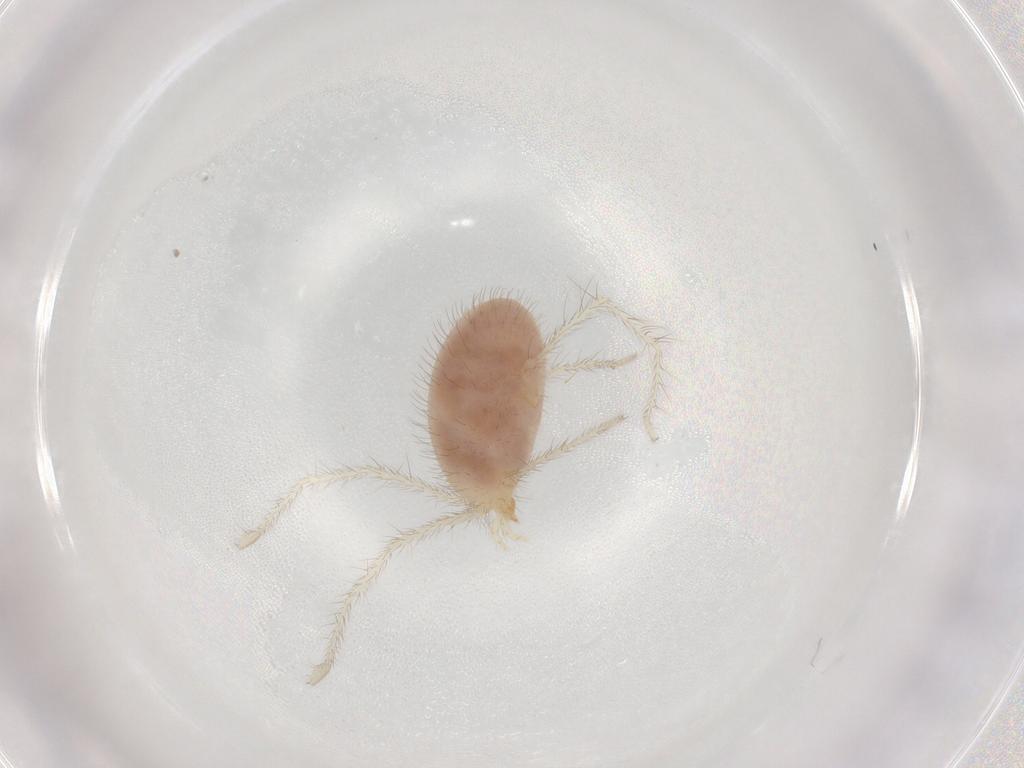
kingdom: Animalia
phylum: Arthropoda
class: Arachnida
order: Trombidiformes
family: Erythraeidae
